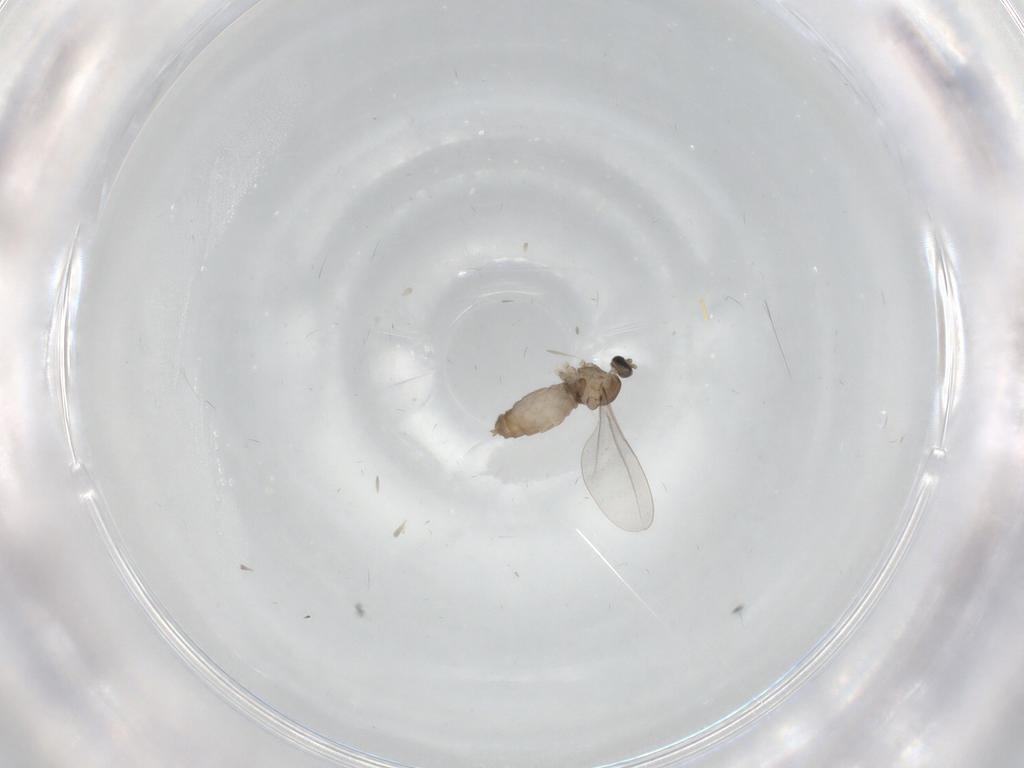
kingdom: Animalia
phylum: Arthropoda
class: Insecta
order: Diptera
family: Cecidomyiidae
